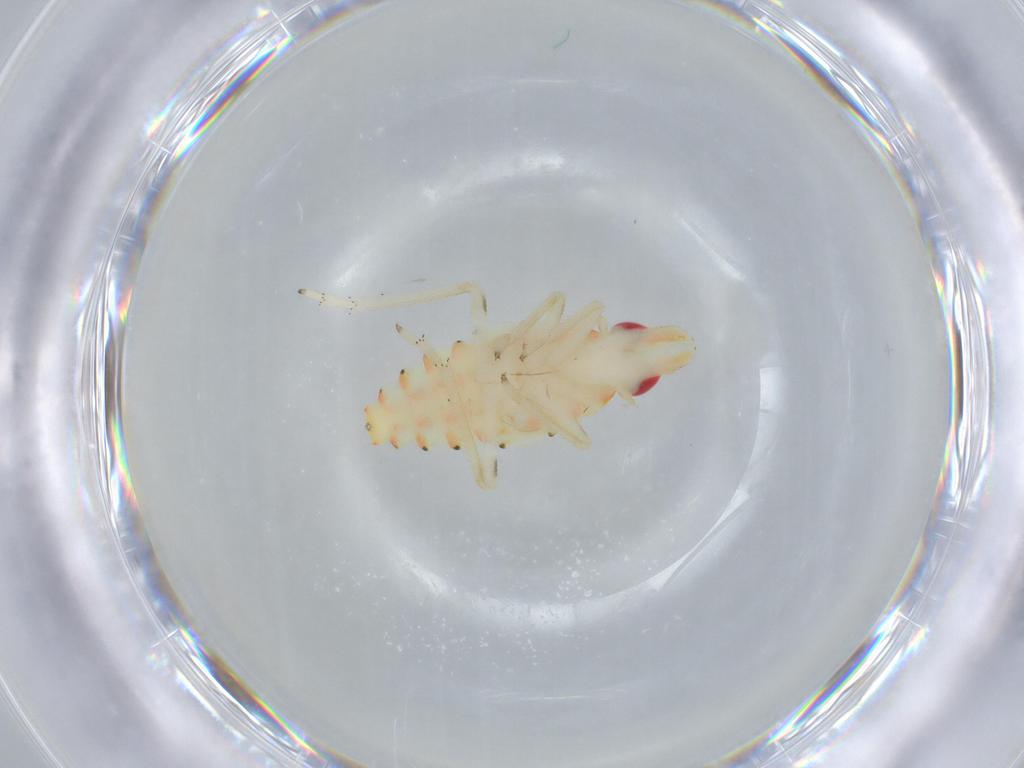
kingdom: Animalia
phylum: Arthropoda
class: Insecta
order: Hemiptera
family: Tropiduchidae
